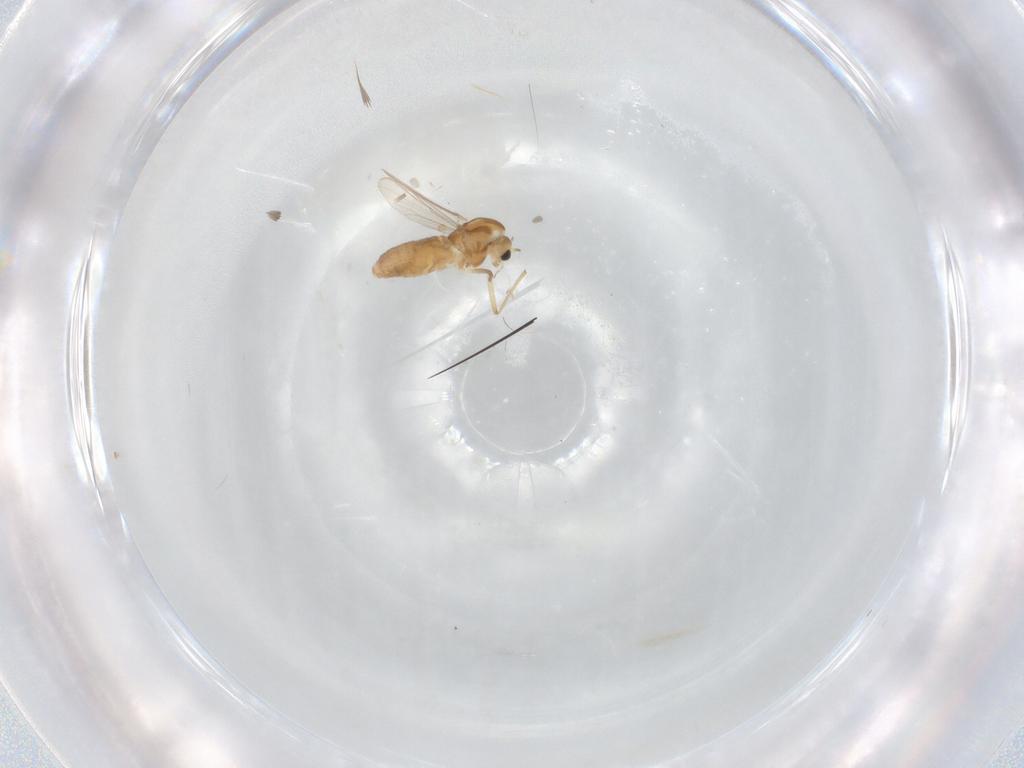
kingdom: Animalia
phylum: Arthropoda
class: Insecta
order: Diptera
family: Chironomidae
